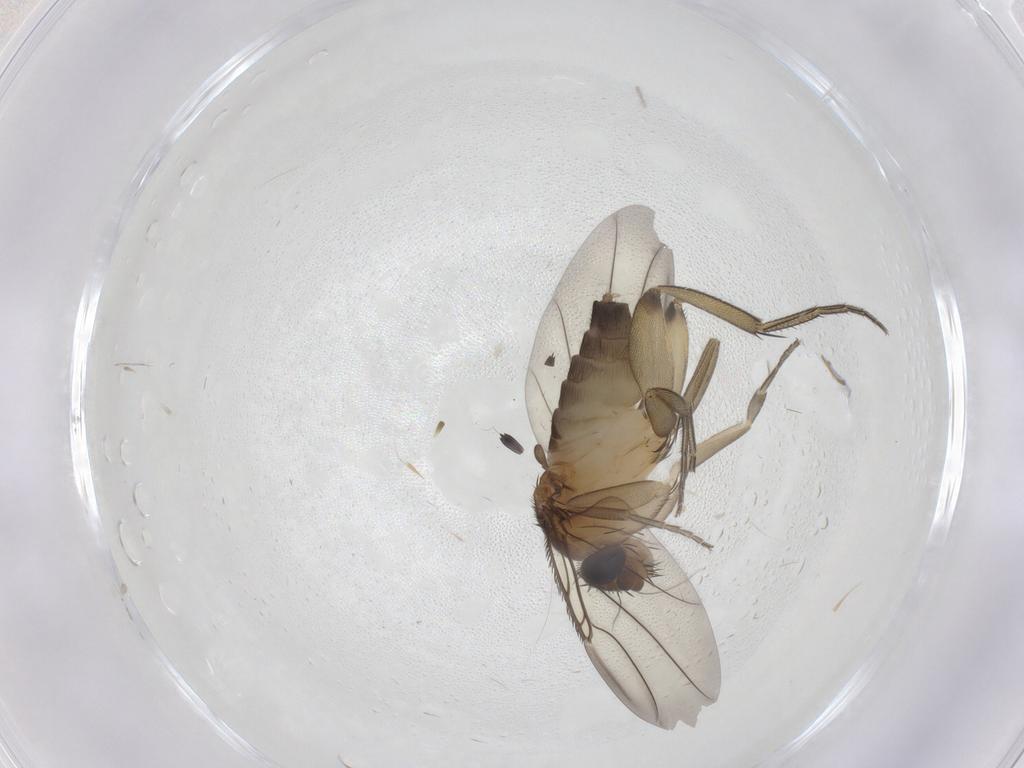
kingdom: Animalia
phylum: Arthropoda
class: Insecta
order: Diptera
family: Phoridae
